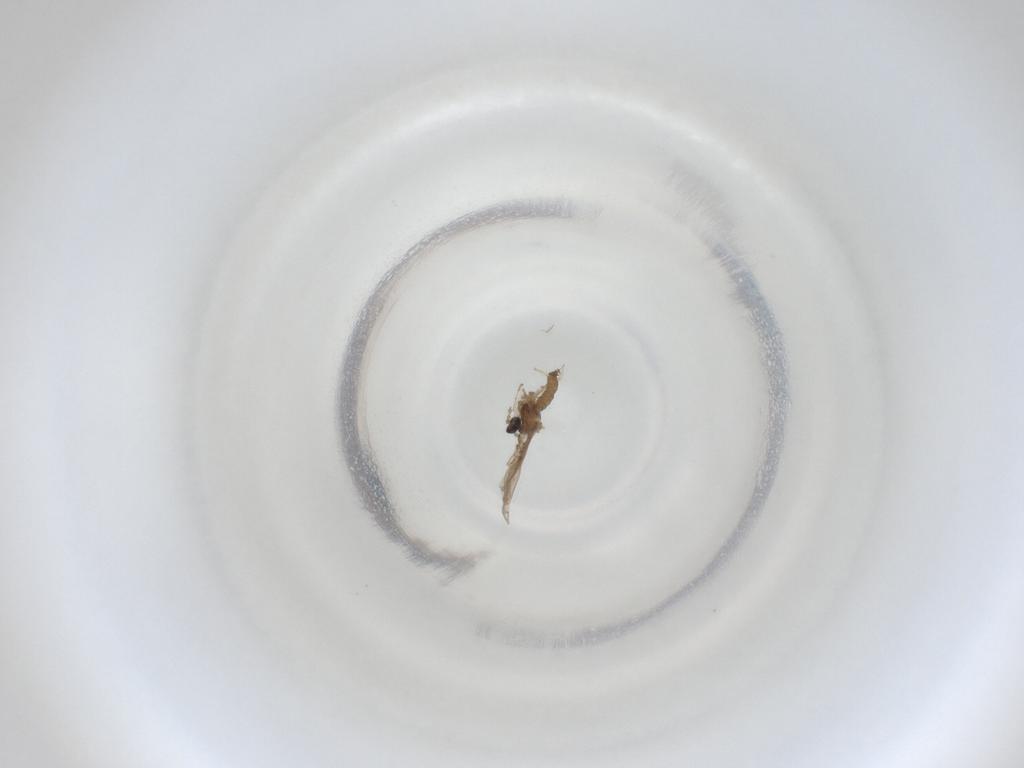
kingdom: Animalia
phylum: Arthropoda
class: Insecta
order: Diptera
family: Cecidomyiidae
